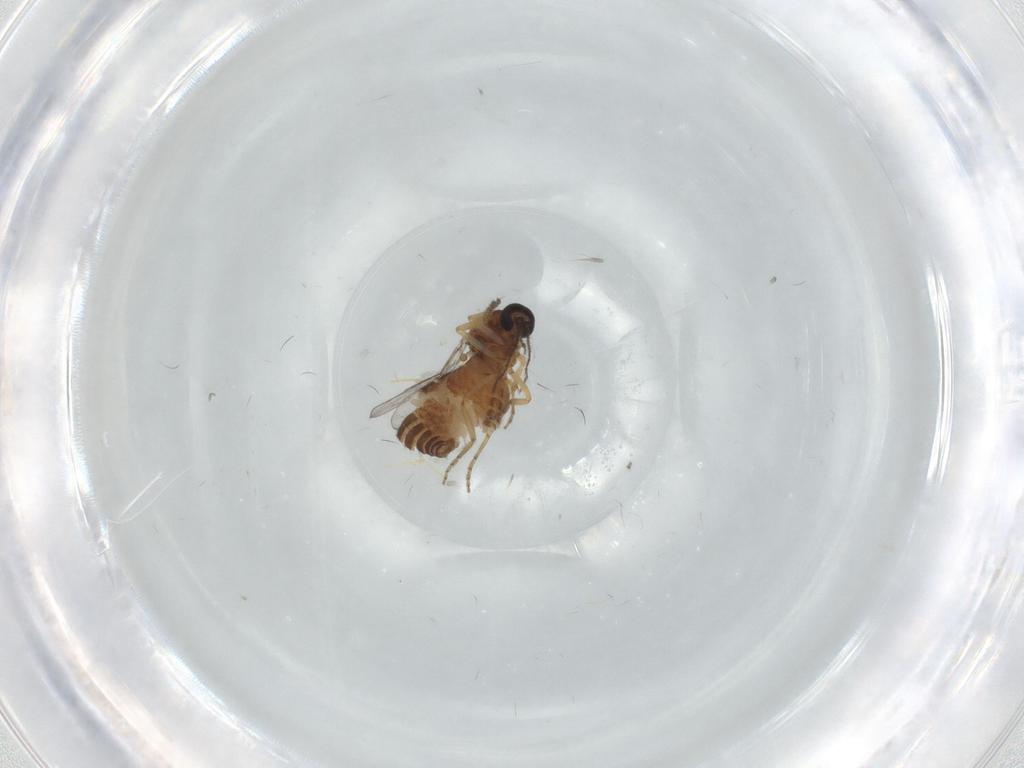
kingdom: Animalia
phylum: Arthropoda
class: Insecta
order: Diptera
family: Ceratopogonidae
